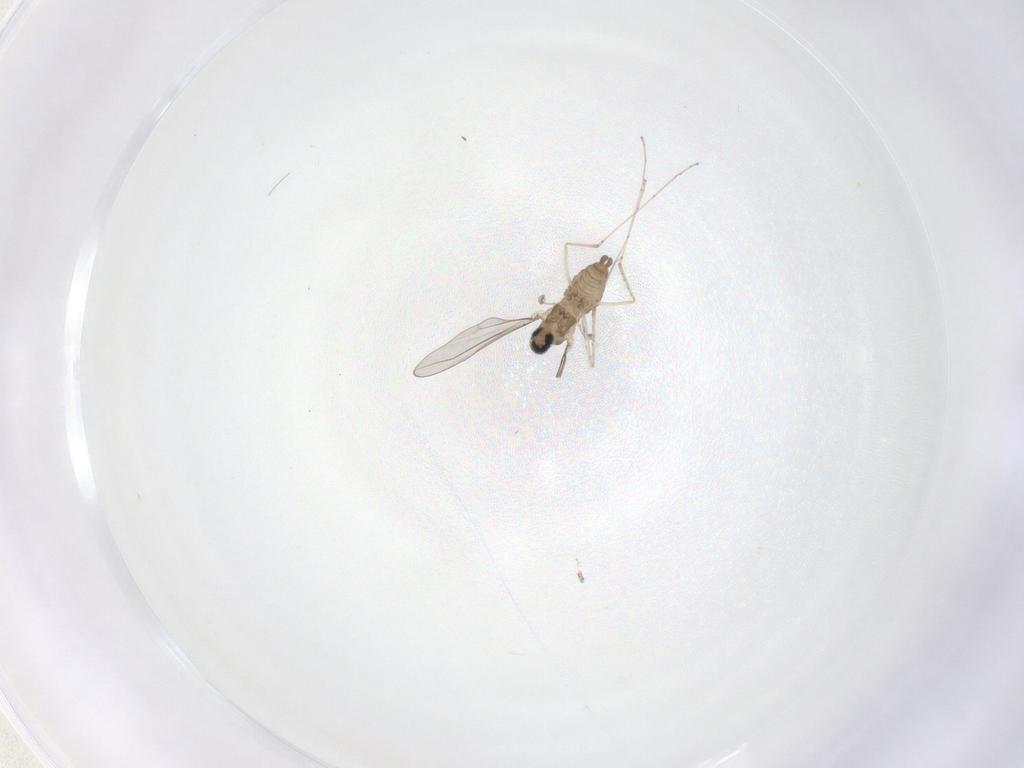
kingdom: Animalia
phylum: Arthropoda
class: Insecta
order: Diptera
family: Cecidomyiidae
